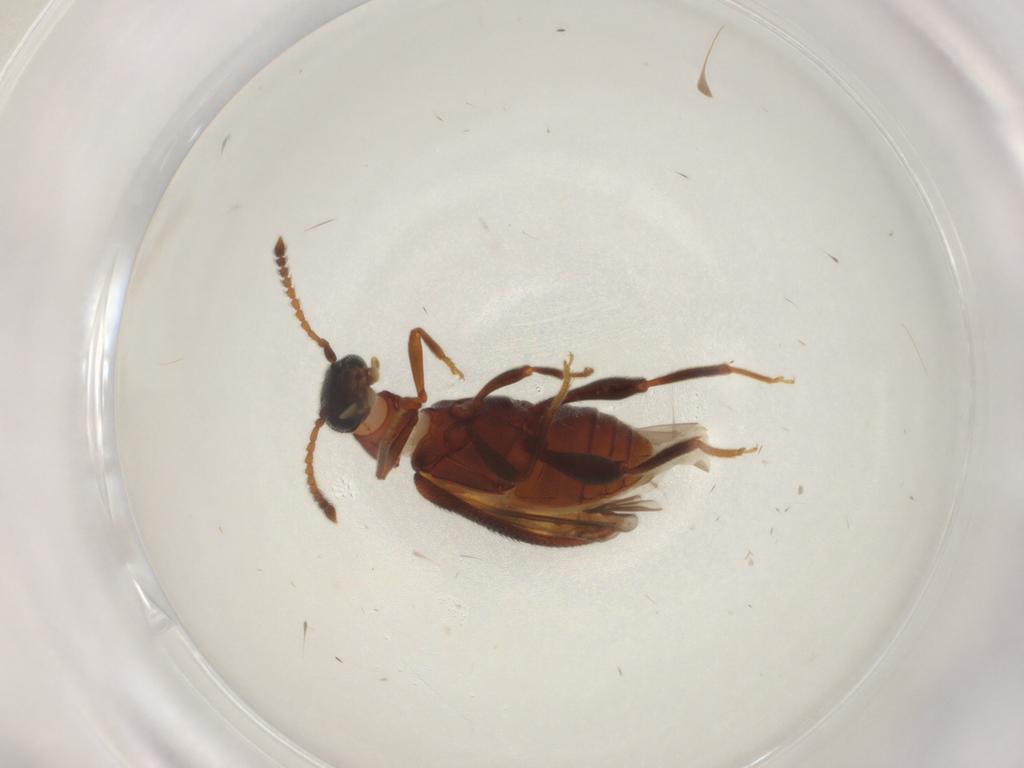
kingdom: Animalia
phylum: Arthropoda
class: Insecta
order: Coleoptera
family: Aderidae
